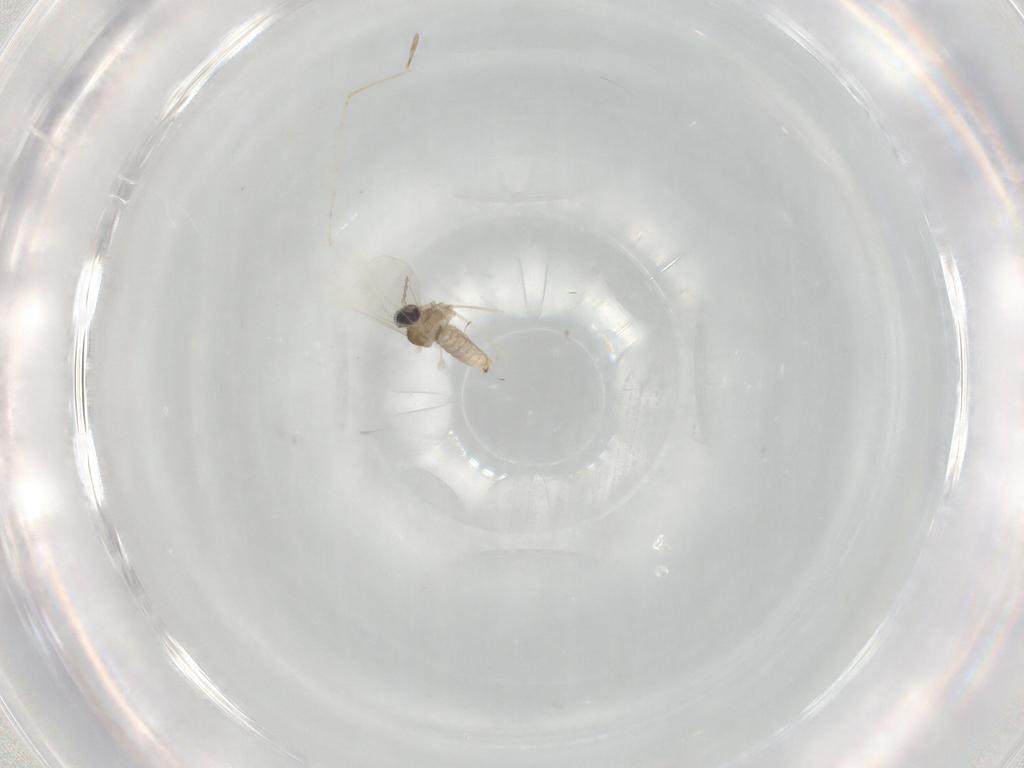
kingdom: Animalia
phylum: Arthropoda
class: Insecta
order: Diptera
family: Cecidomyiidae
